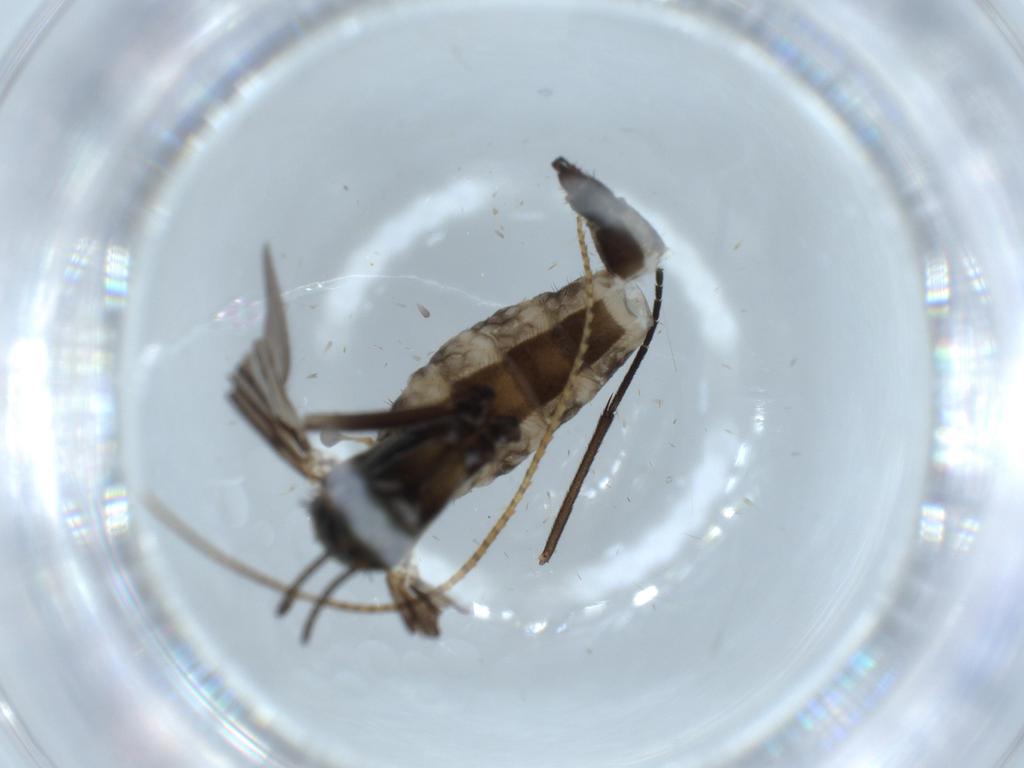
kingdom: Animalia
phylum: Arthropoda
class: Insecta
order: Diptera
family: Sciaridae
